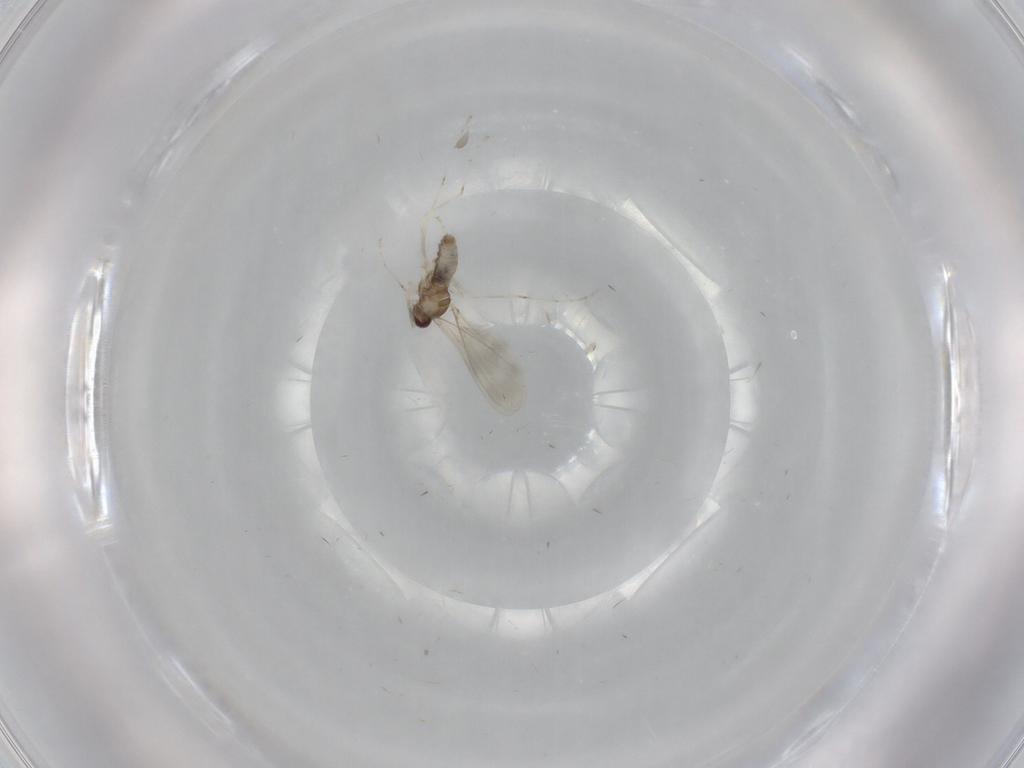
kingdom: Animalia
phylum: Arthropoda
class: Insecta
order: Diptera
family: Cecidomyiidae
